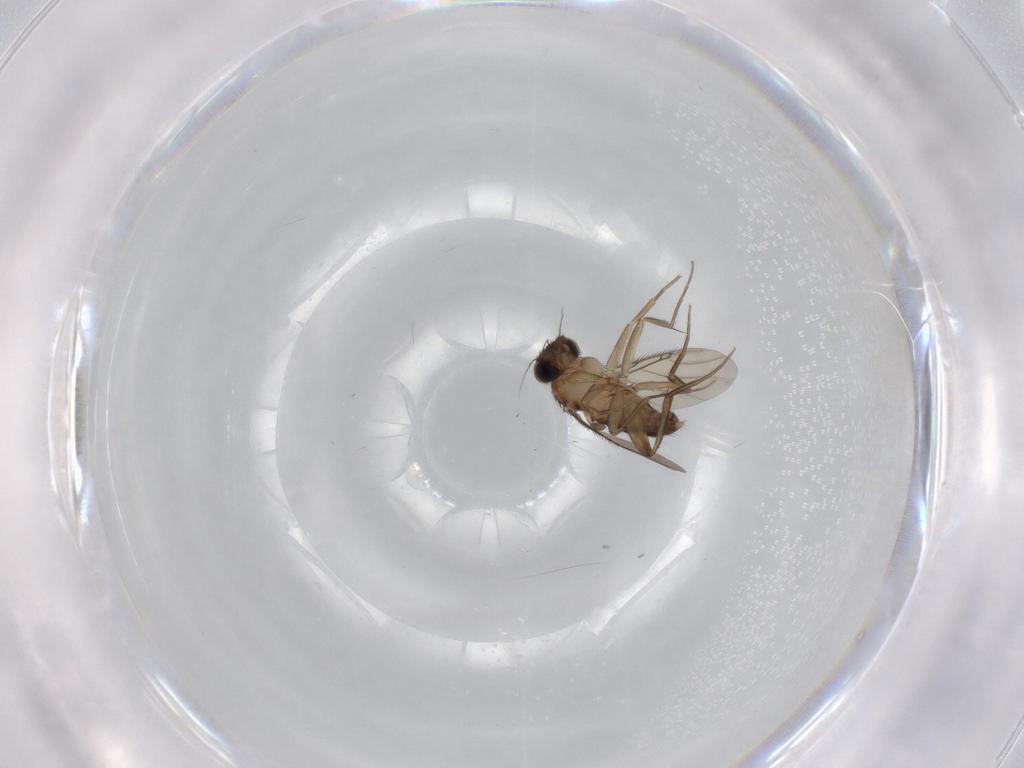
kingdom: Animalia
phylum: Arthropoda
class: Insecta
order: Diptera
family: Phoridae
